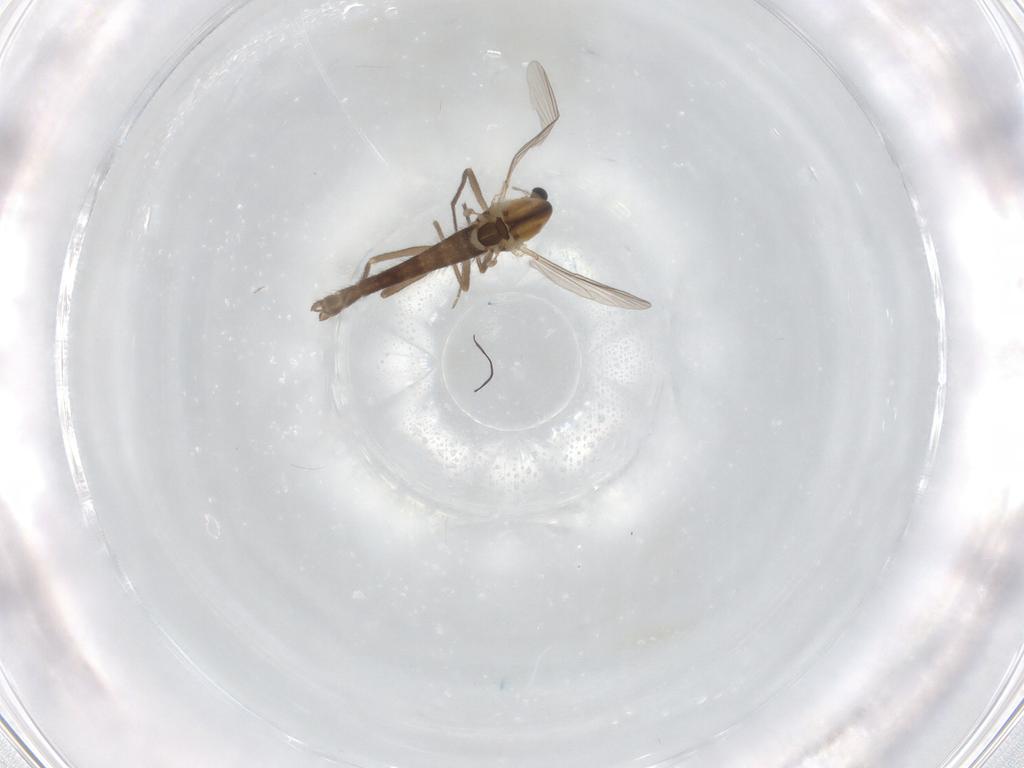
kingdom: Animalia
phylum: Arthropoda
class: Insecta
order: Diptera
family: Chironomidae
